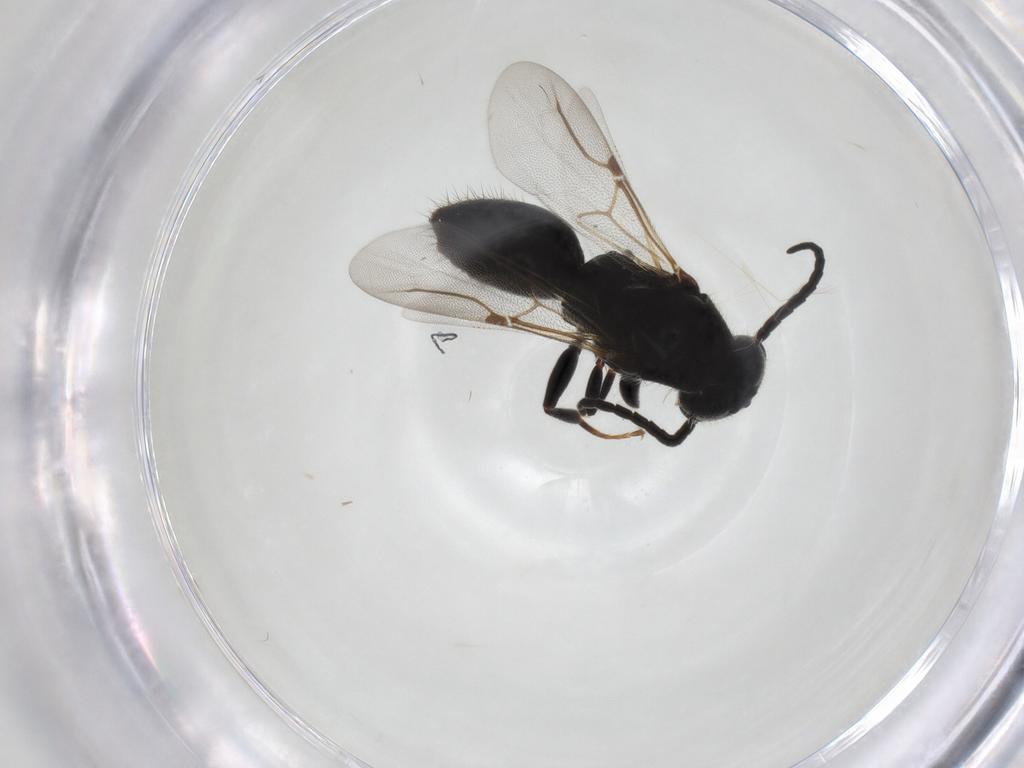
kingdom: Animalia
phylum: Arthropoda
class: Insecta
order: Hymenoptera
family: Bethylidae
